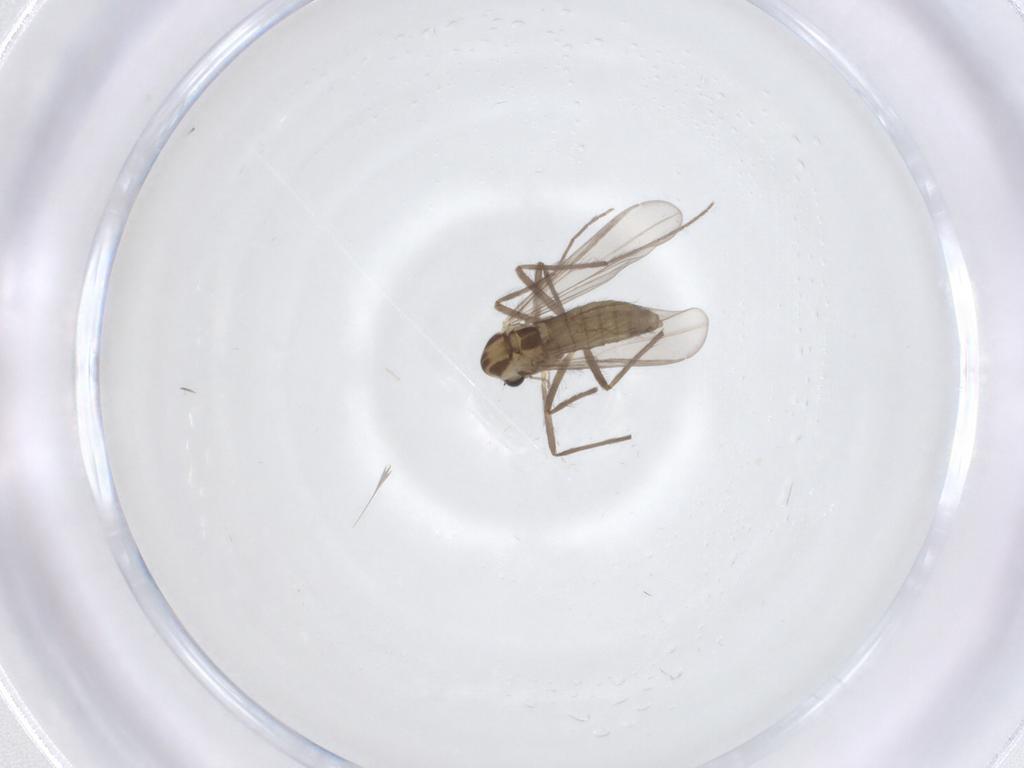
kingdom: Animalia
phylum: Arthropoda
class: Insecta
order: Diptera
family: Chironomidae
